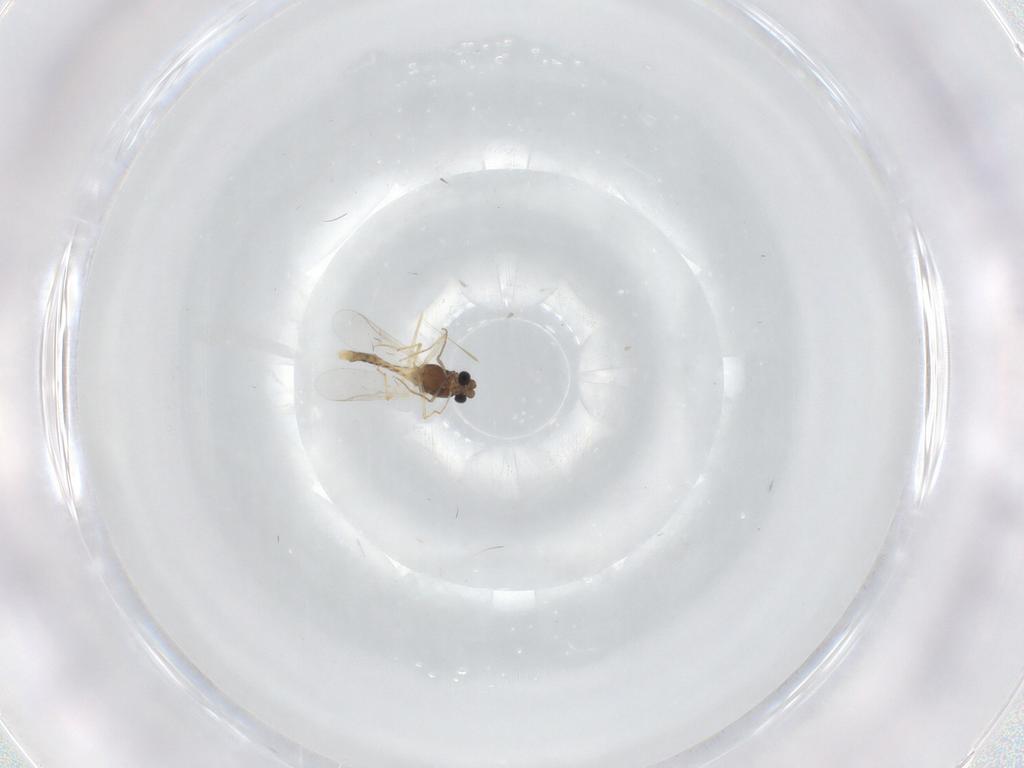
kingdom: Animalia
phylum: Arthropoda
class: Insecta
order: Diptera
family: Chironomidae
